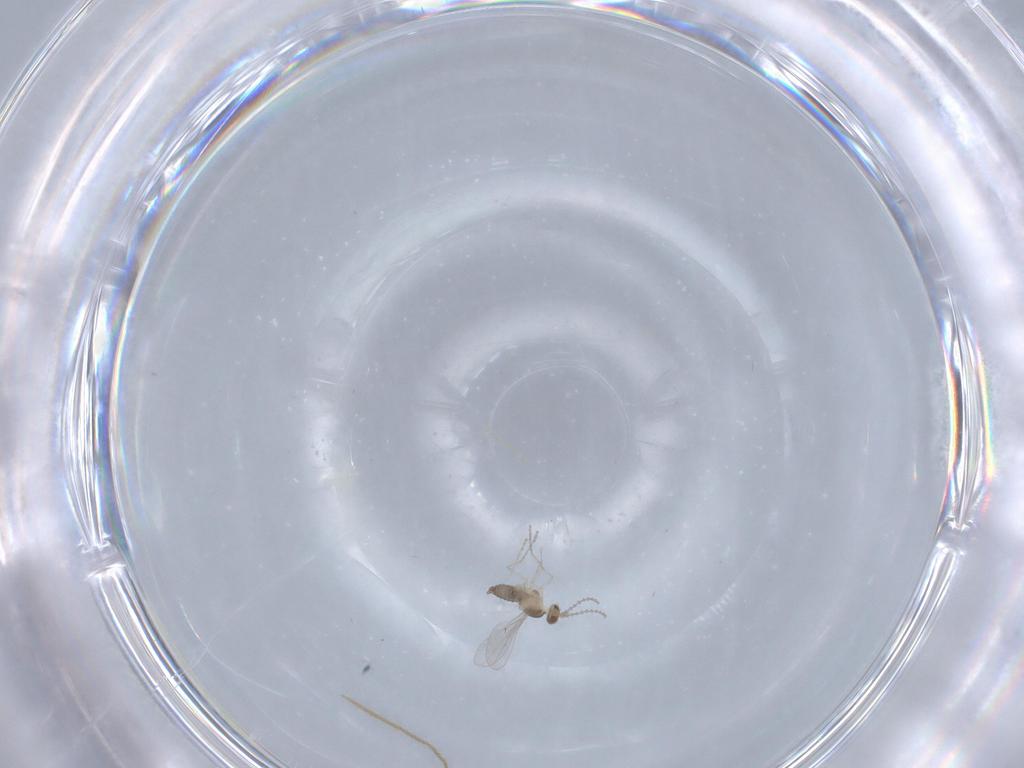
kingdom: Animalia
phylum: Arthropoda
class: Insecta
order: Diptera
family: Cecidomyiidae
